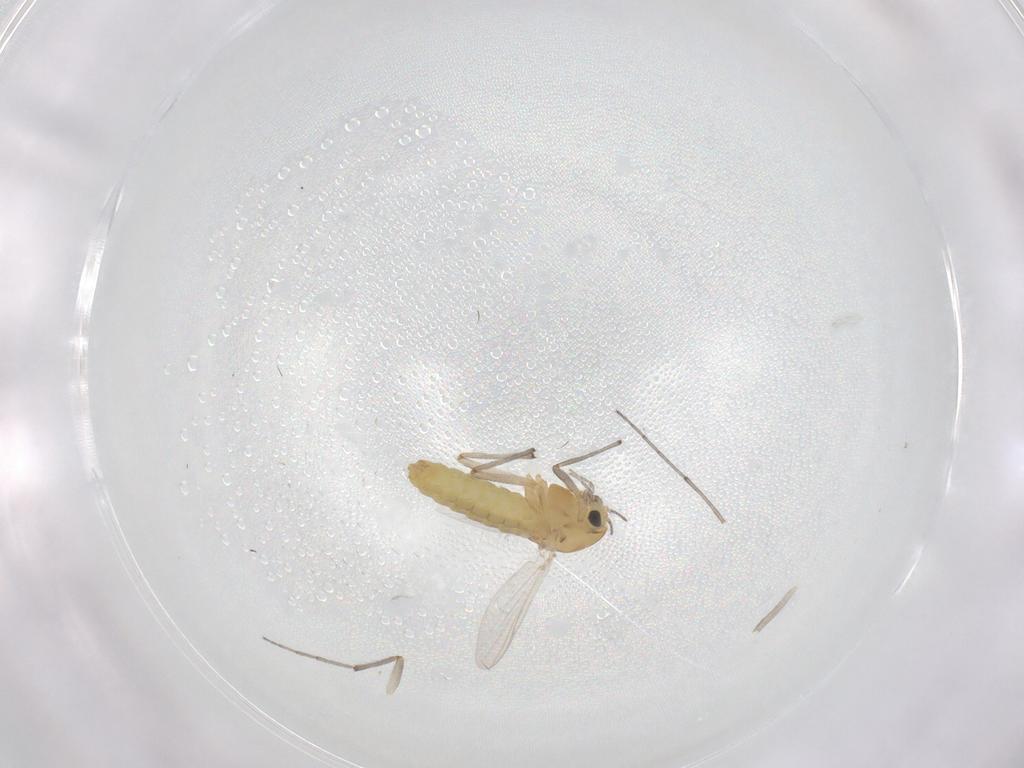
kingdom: Animalia
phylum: Arthropoda
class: Insecta
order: Diptera
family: Chironomidae
